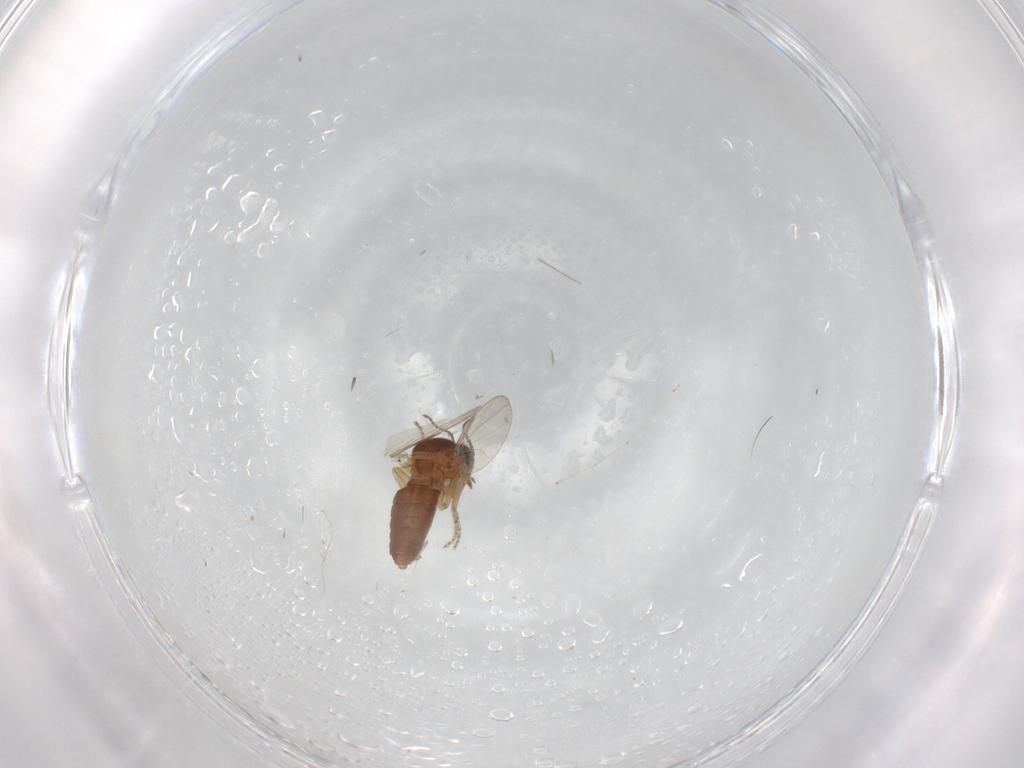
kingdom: Animalia
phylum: Arthropoda
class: Insecta
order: Diptera
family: Ceratopogonidae
